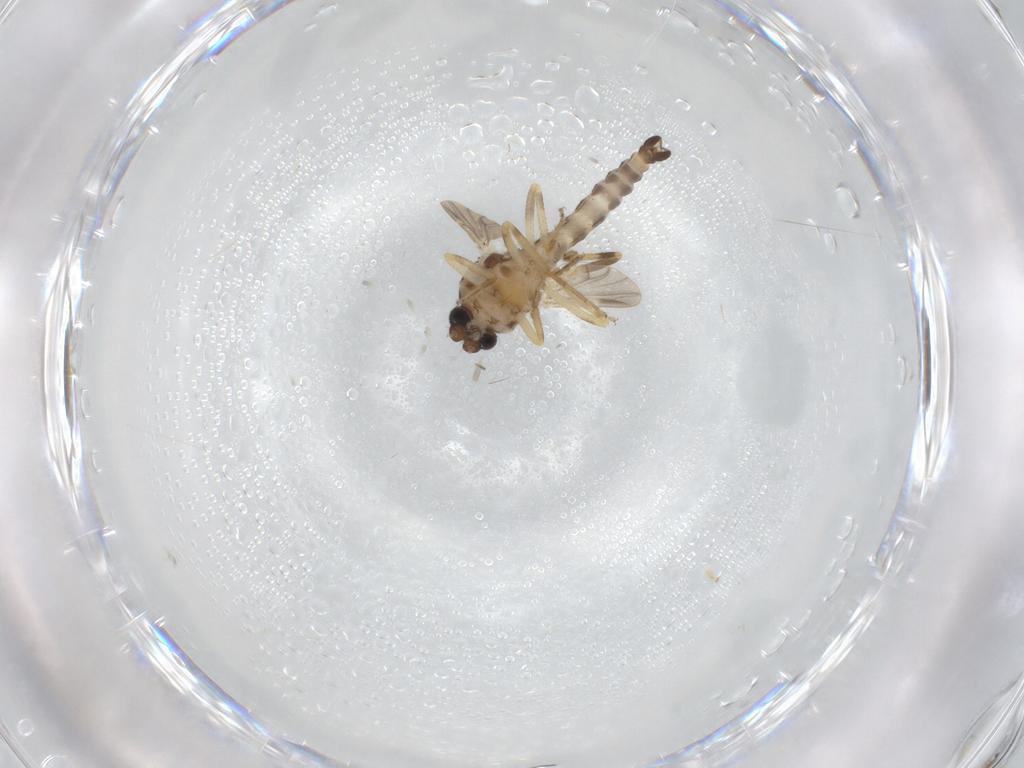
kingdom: Animalia
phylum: Arthropoda
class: Insecta
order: Diptera
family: Ceratopogonidae
